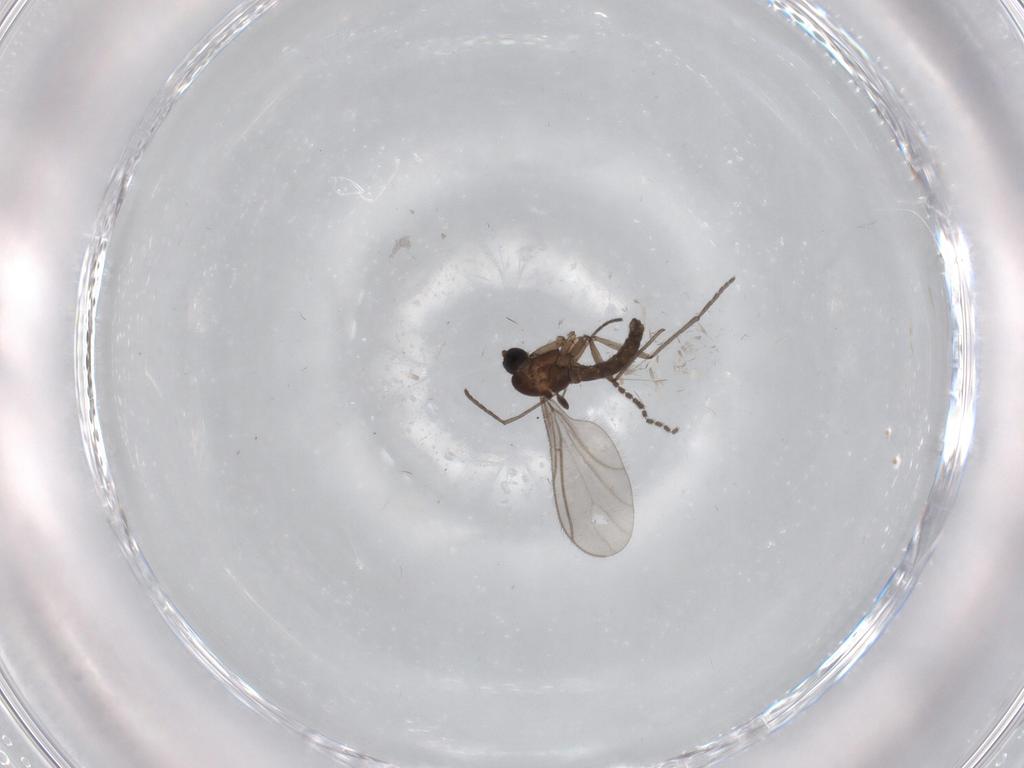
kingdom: Animalia
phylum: Arthropoda
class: Insecta
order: Diptera
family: Sciaridae
